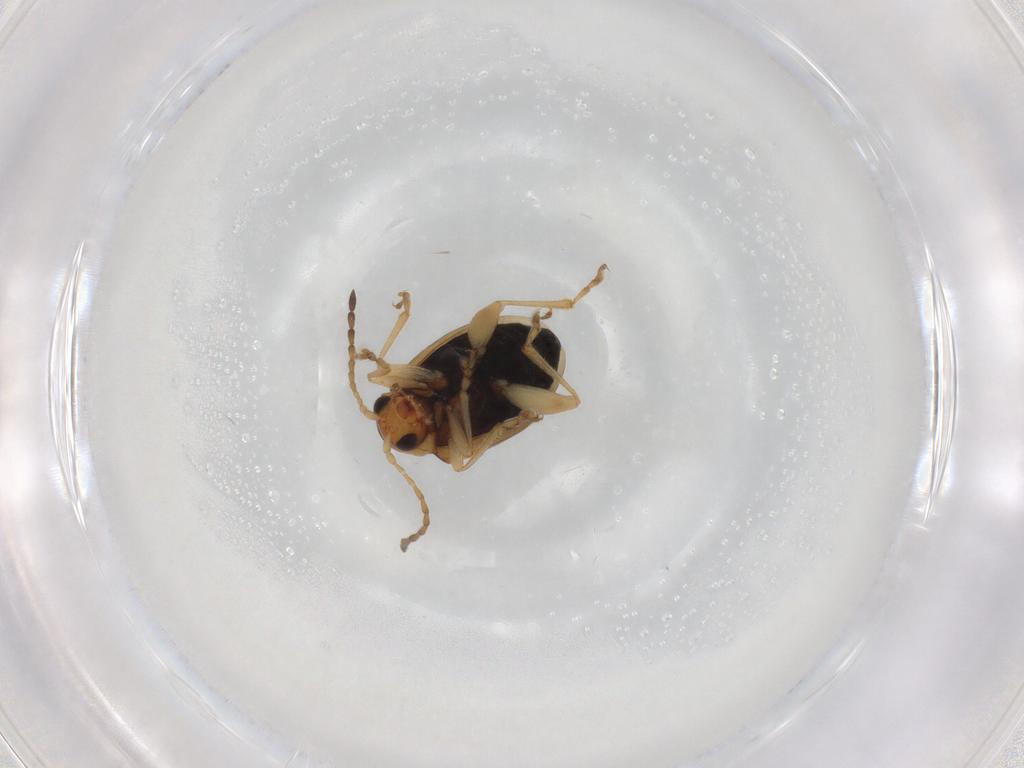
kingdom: Animalia
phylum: Arthropoda
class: Insecta
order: Coleoptera
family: Chrysomelidae
